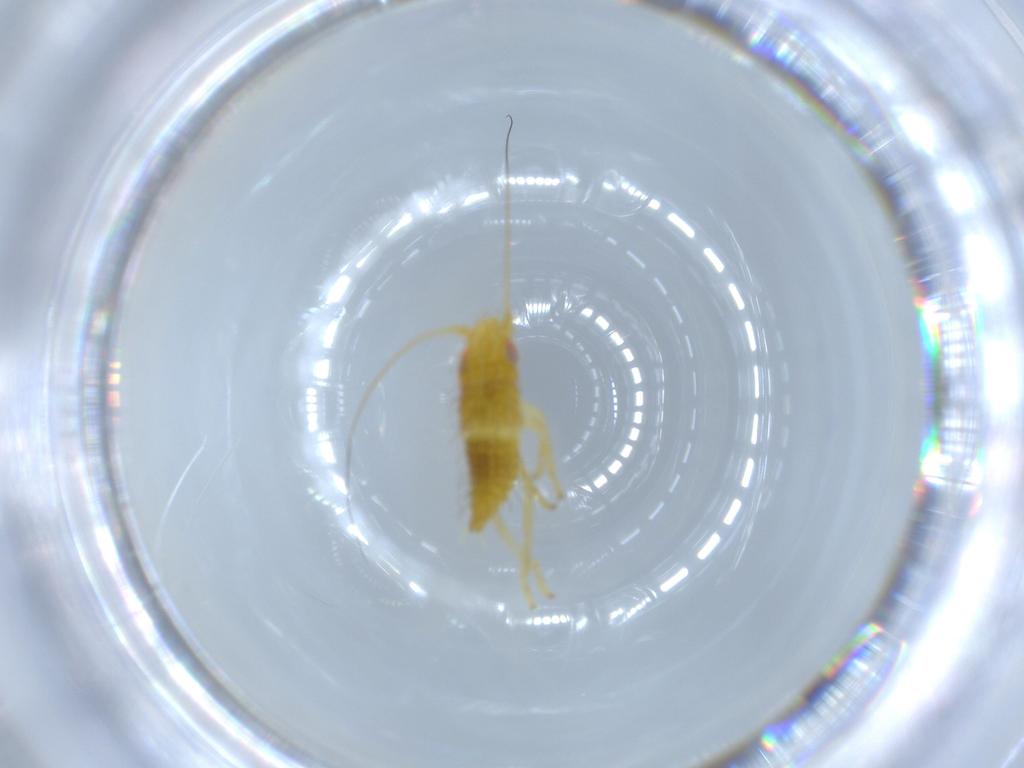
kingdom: Animalia
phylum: Arthropoda
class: Insecta
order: Hemiptera
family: Cicadellidae
